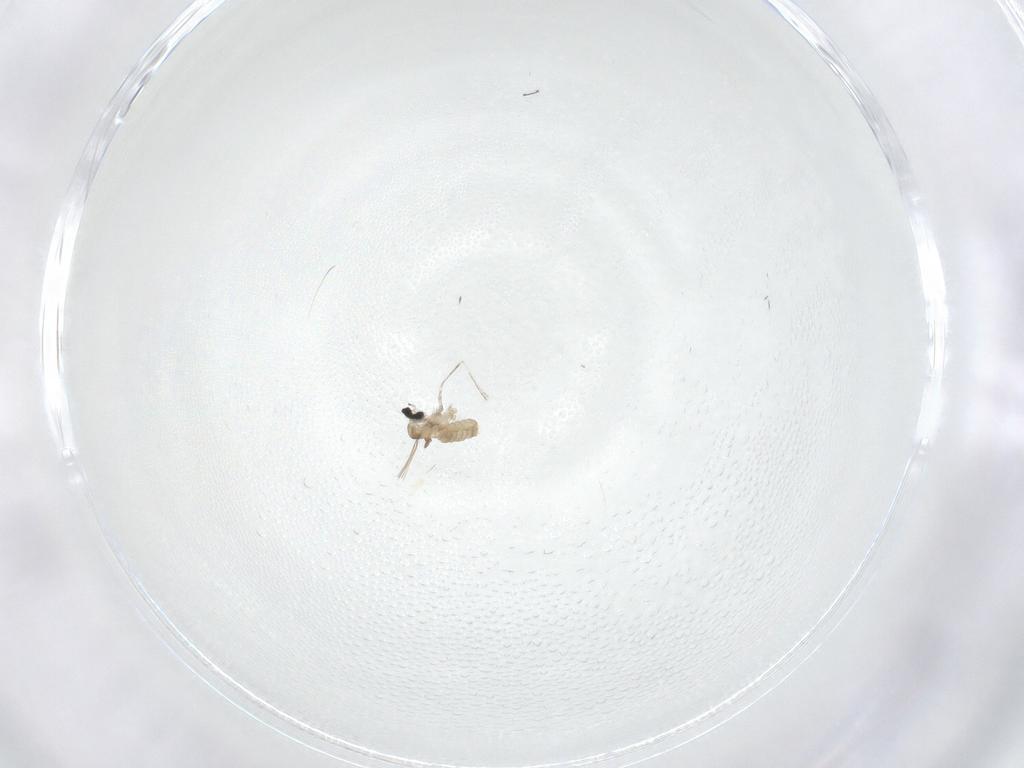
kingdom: Animalia
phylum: Arthropoda
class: Insecta
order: Diptera
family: Cecidomyiidae
